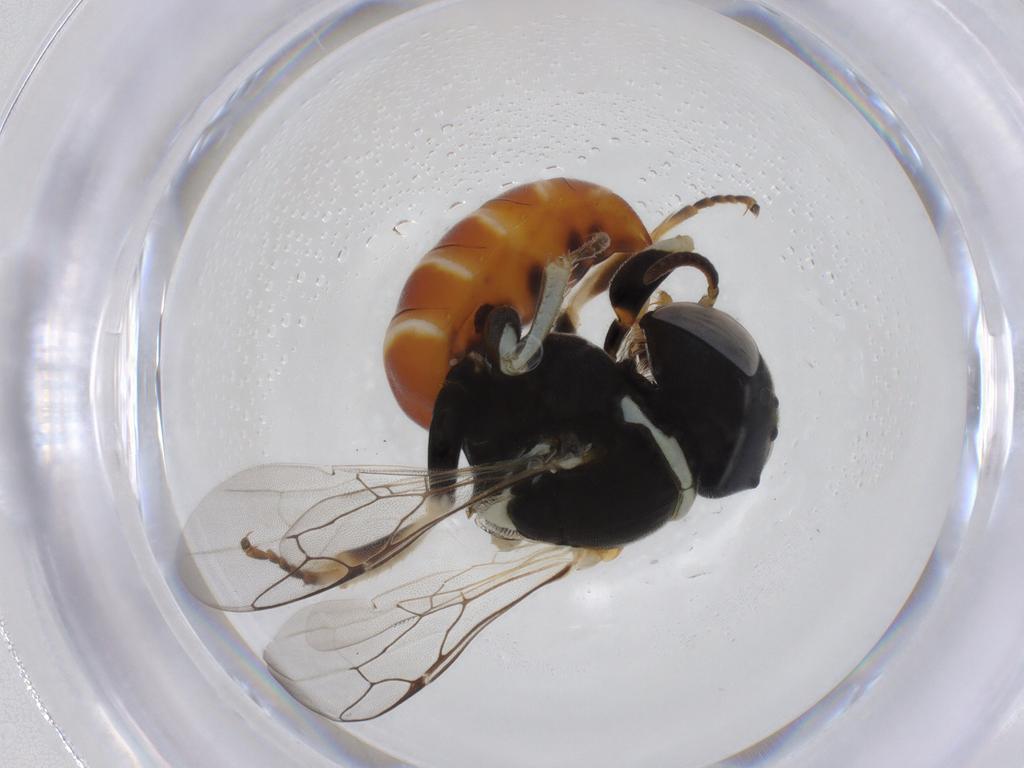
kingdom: Animalia
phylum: Arthropoda
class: Insecta
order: Hymenoptera
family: Crabronidae
